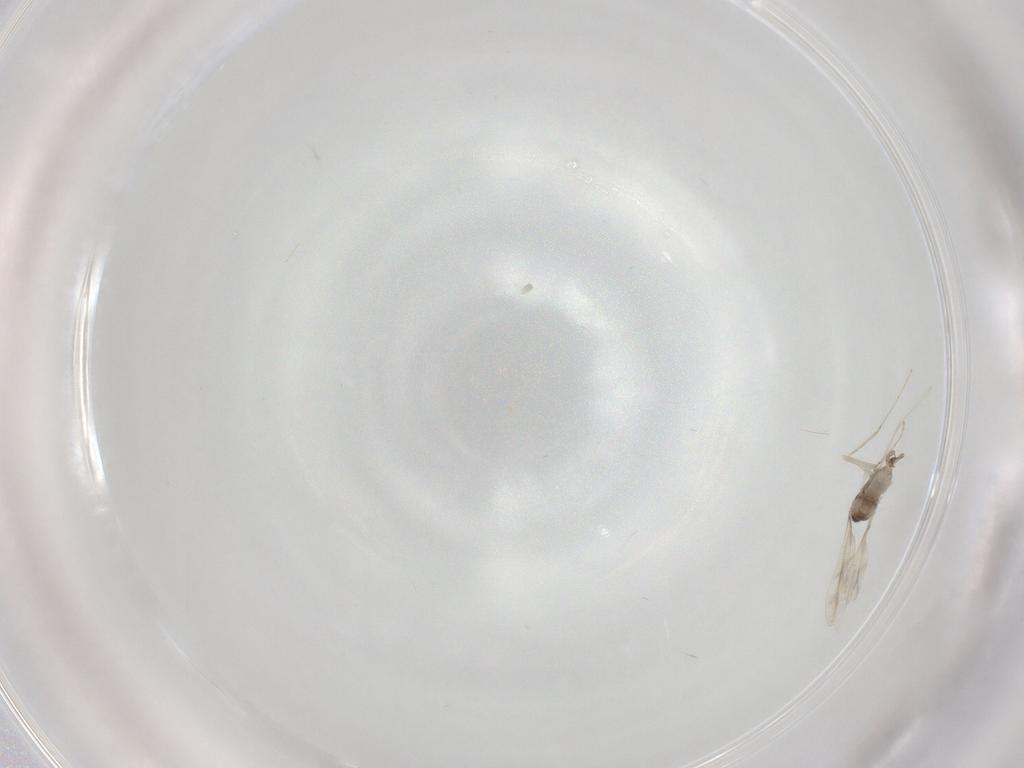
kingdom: Animalia
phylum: Arthropoda
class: Insecta
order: Diptera
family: Cecidomyiidae
